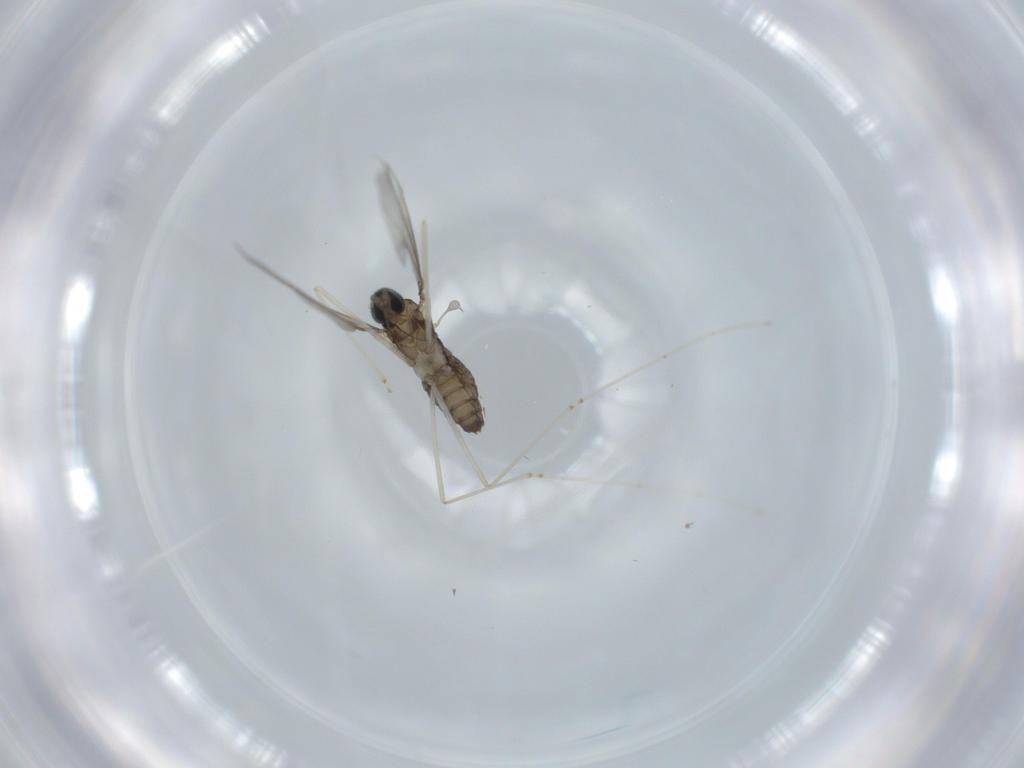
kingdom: Animalia
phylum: Arthropoda
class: Insecta
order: Diptera
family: Cecidomyiidae
